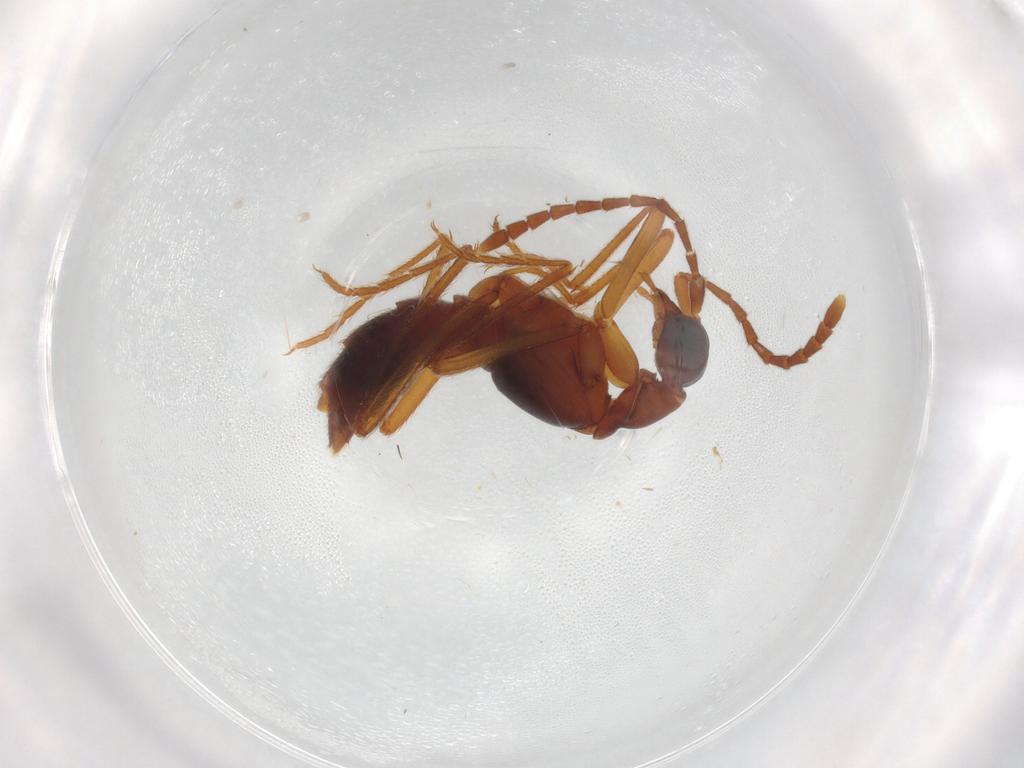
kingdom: Animalia
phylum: Arthropoda
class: Insecta
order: Coleoptera
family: Staphylinidae
